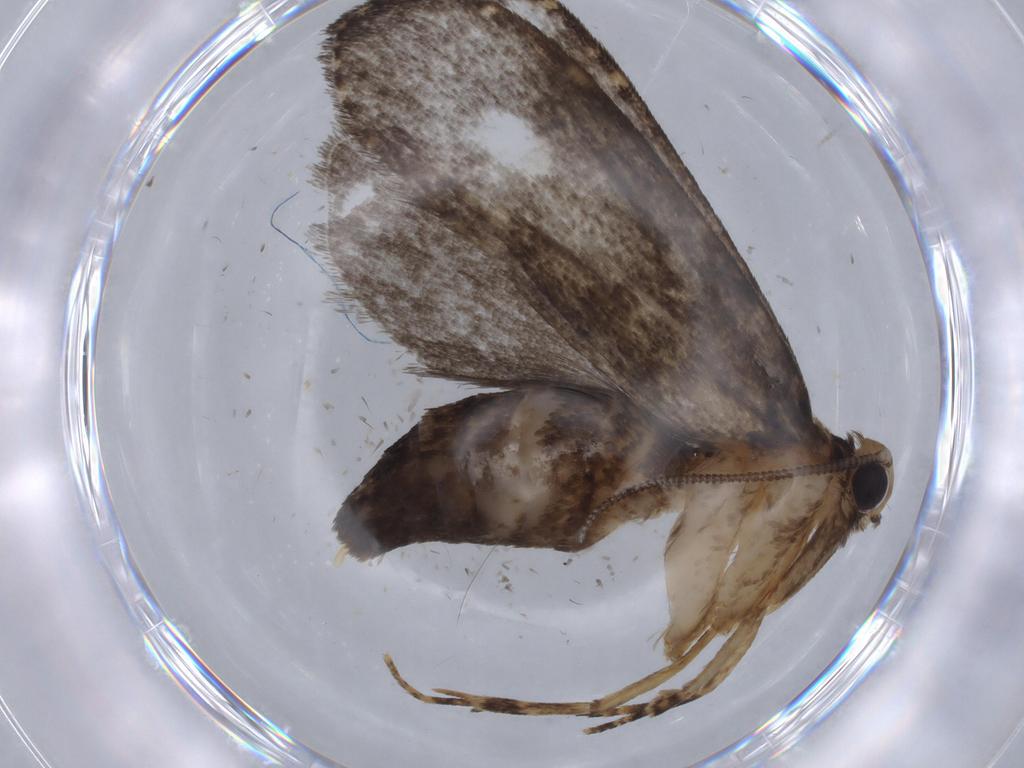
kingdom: Animalia
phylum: Arthropoda
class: Insecta
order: Lepidoptera
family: Tineidae
